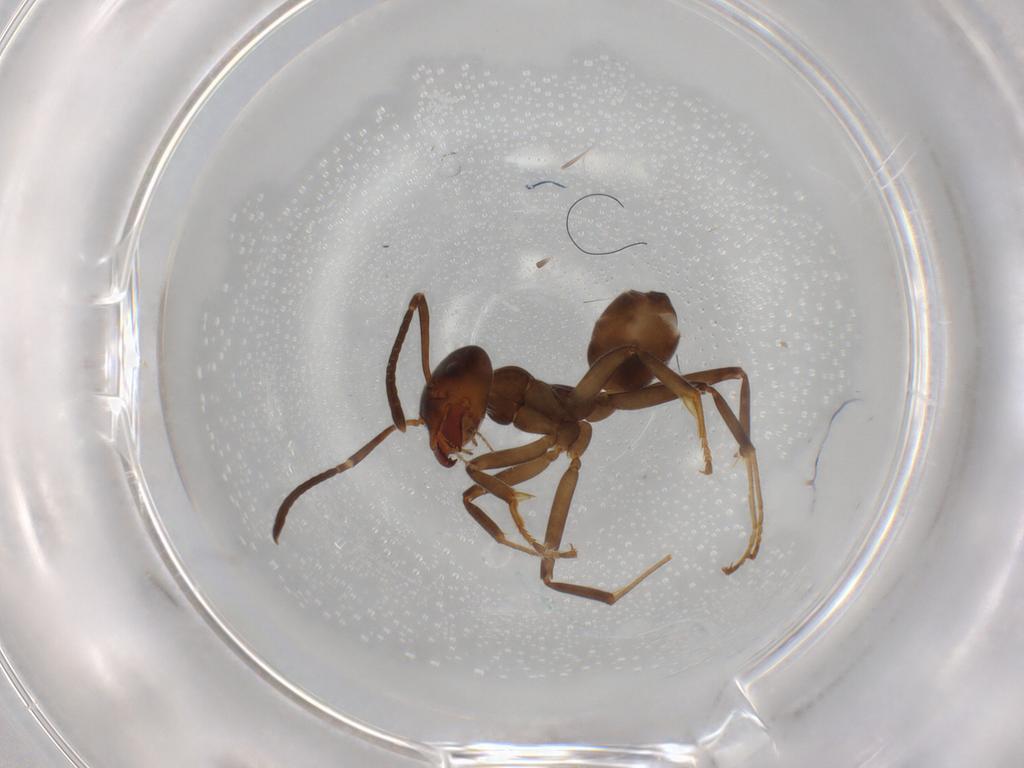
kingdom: Animalia
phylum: Arthropoda
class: Insecta
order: Hymenoptera
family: Formicidae
